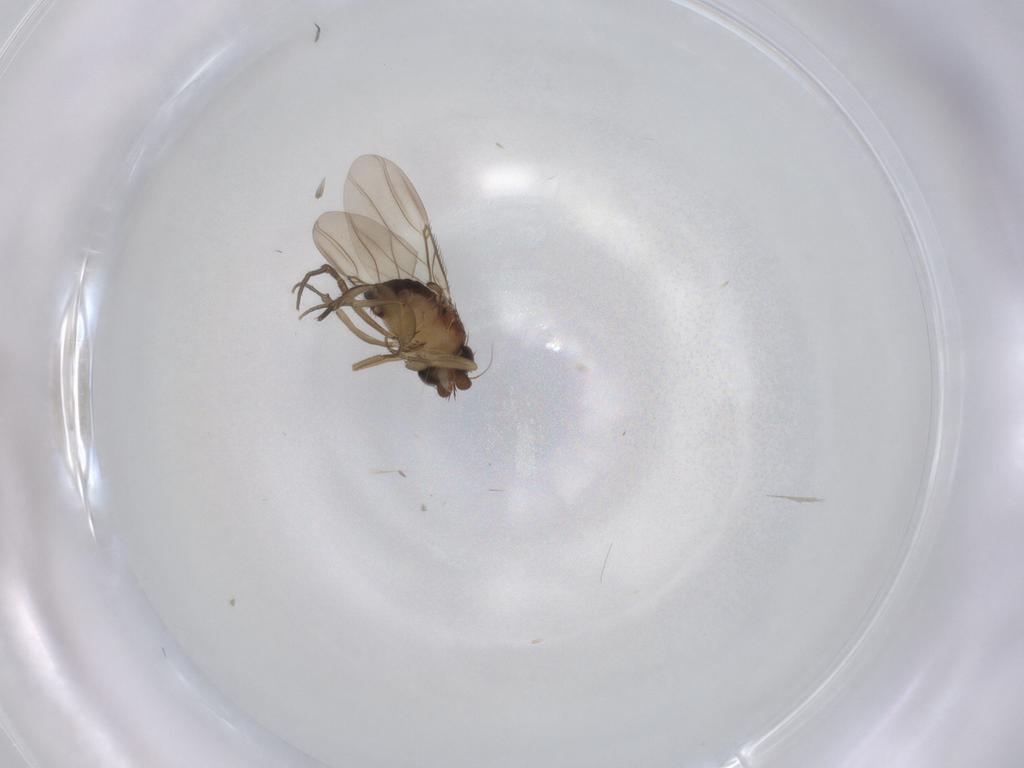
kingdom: Animalia
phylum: Arthropoda
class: Insecta
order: Diptera
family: Phoridae
